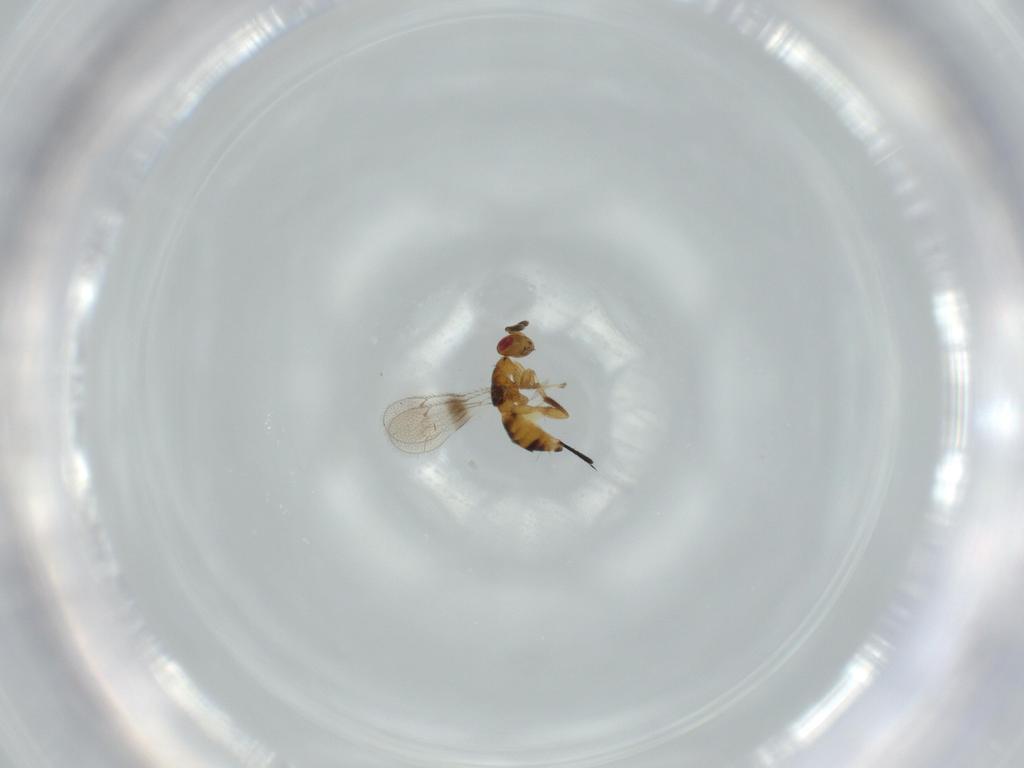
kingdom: Animalia
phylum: Arthropoda
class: Insecta
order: Hymenoptera
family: Torymidae
